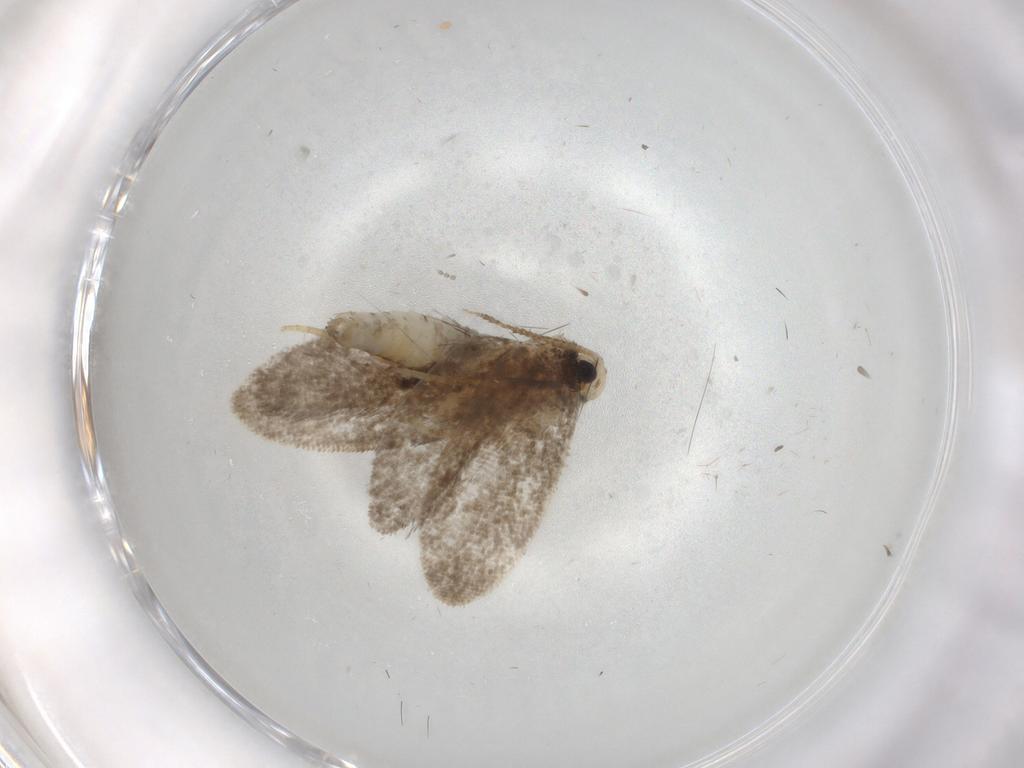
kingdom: Animalia
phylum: Arthropoda
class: Insecta
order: Lepidoptera
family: Psychidae
